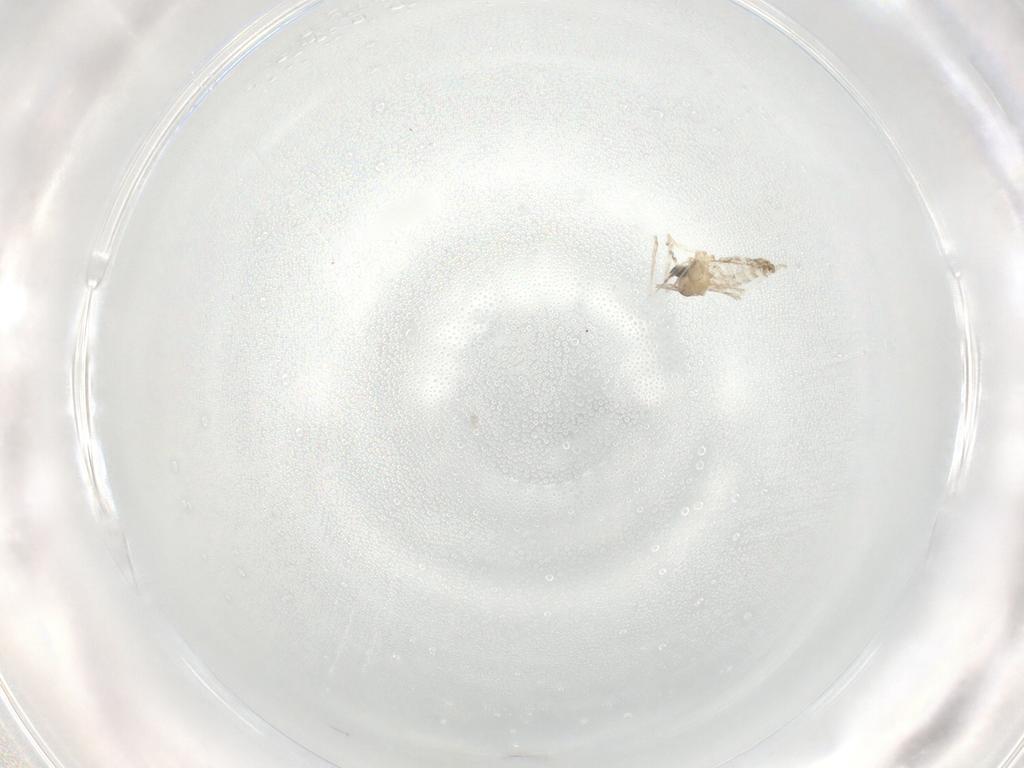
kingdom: Animalia
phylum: Arthropoda
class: Insecta
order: Diptera
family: Cecidomyiidae
